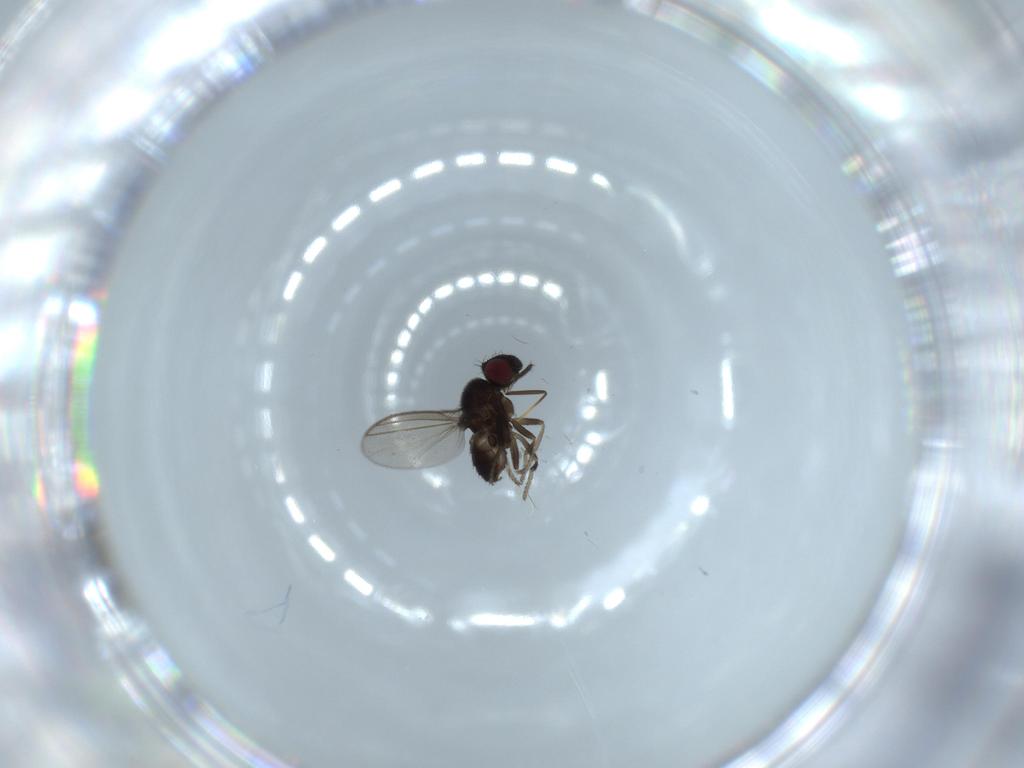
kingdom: Animalia
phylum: Arthropoda
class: Insecta
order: Diptera
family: Milichiidae
